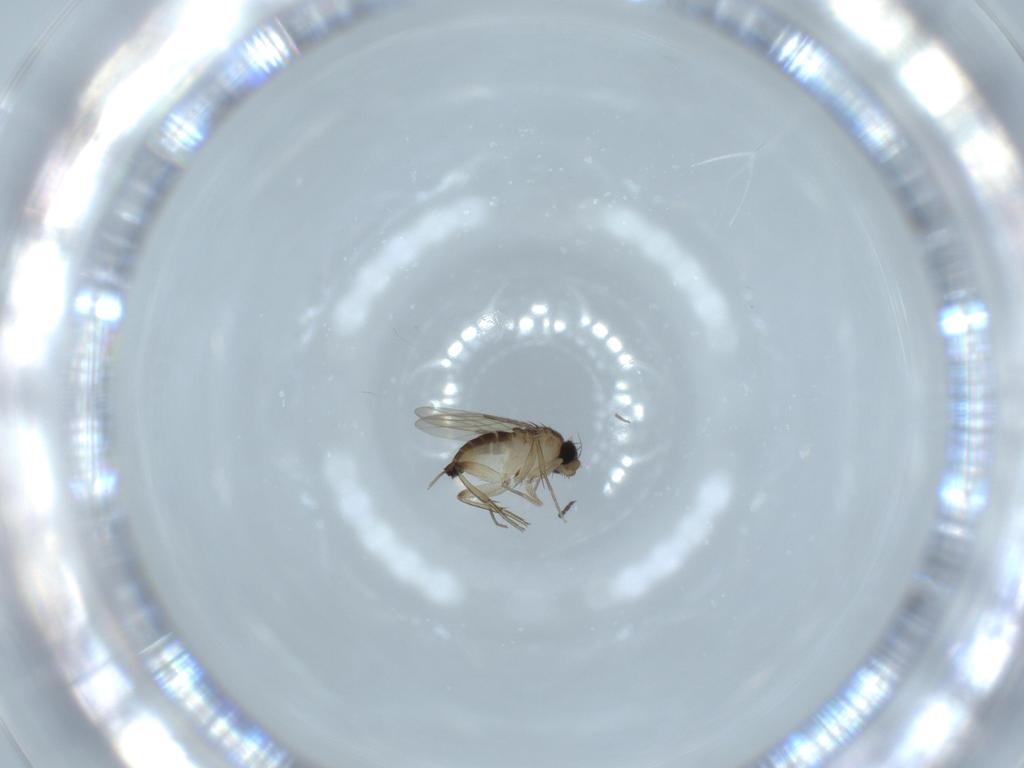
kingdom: Animalia
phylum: Arthropoda
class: Insecta
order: Diptera
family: Phoridae
